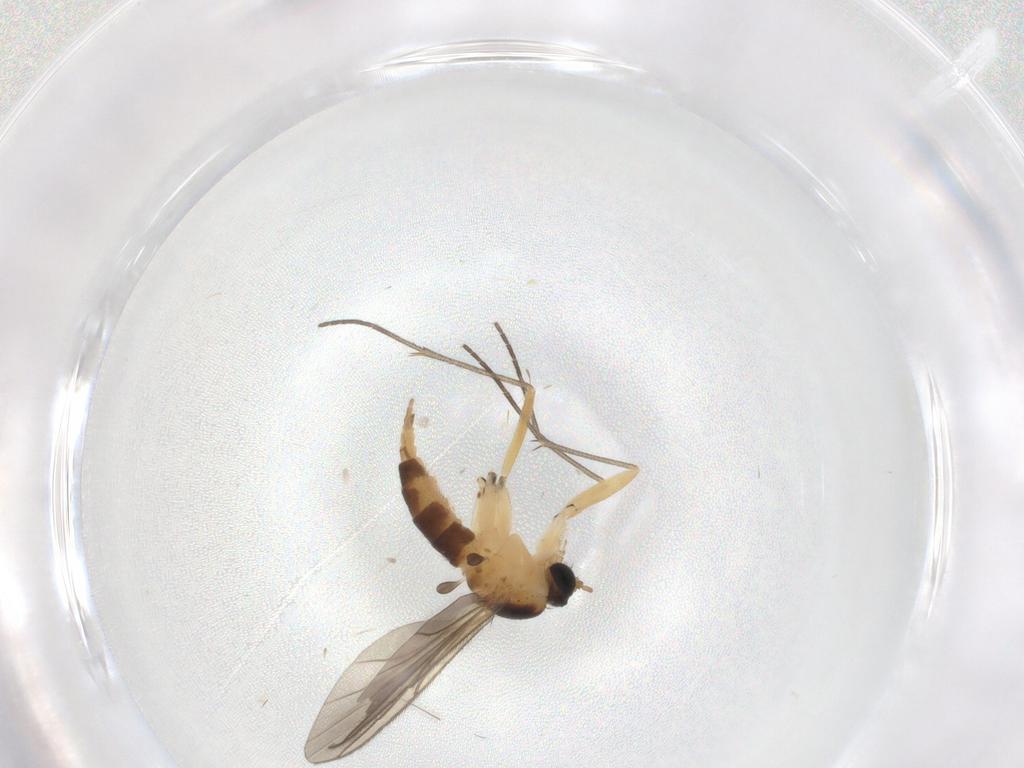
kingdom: Animalia
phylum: Arthropoda
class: Insecta
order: Diptera
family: Sciaridae
